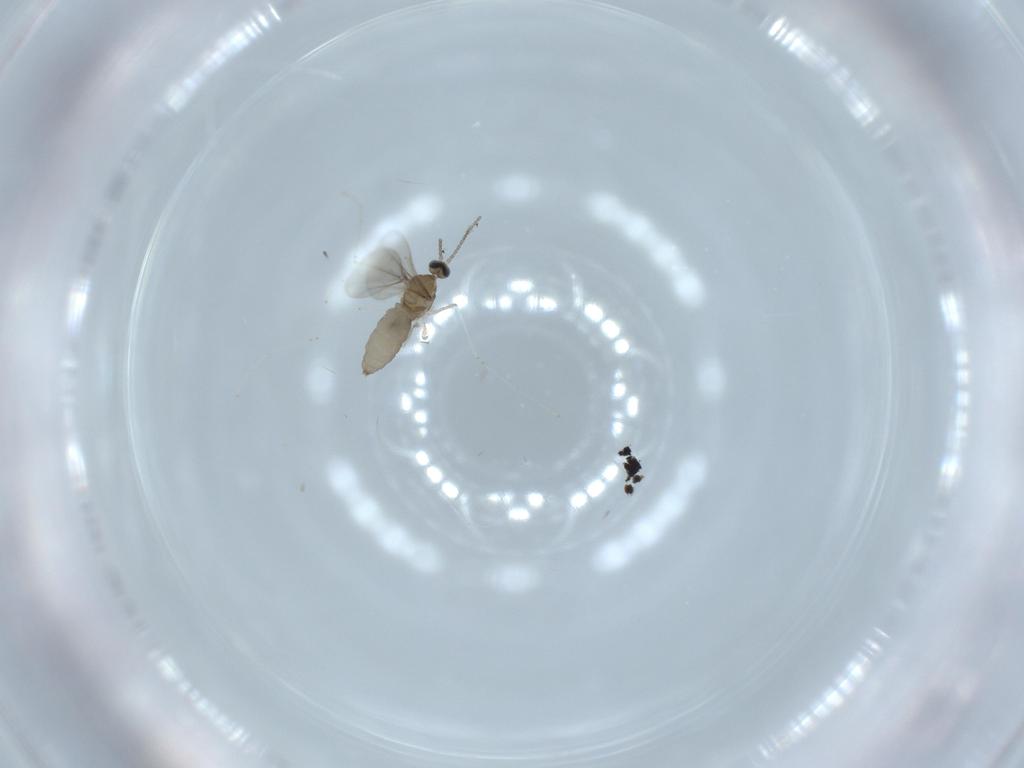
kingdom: Animalia
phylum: Arthropoda
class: Insecta
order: Diptera
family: Cecidomyiidae
